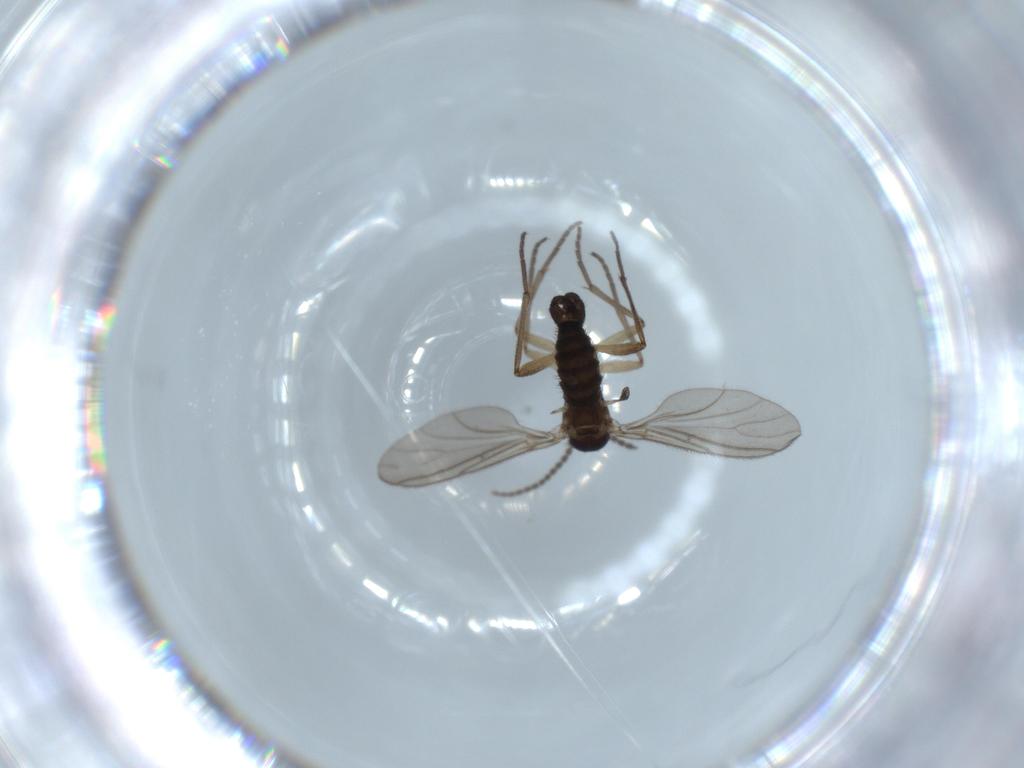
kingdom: Animalia
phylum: Arthropoda
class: Insecta
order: Diptera
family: Sciaridae
